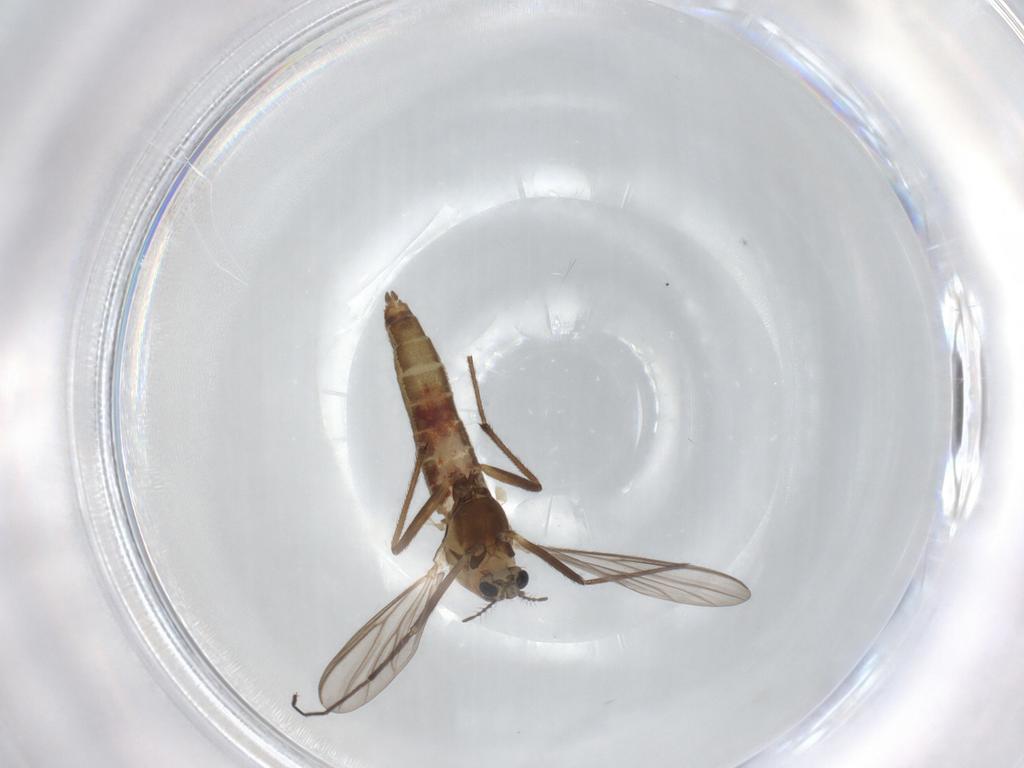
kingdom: Animalia
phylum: Arthropoda
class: Insecta
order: Diptera
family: Chironomidae
